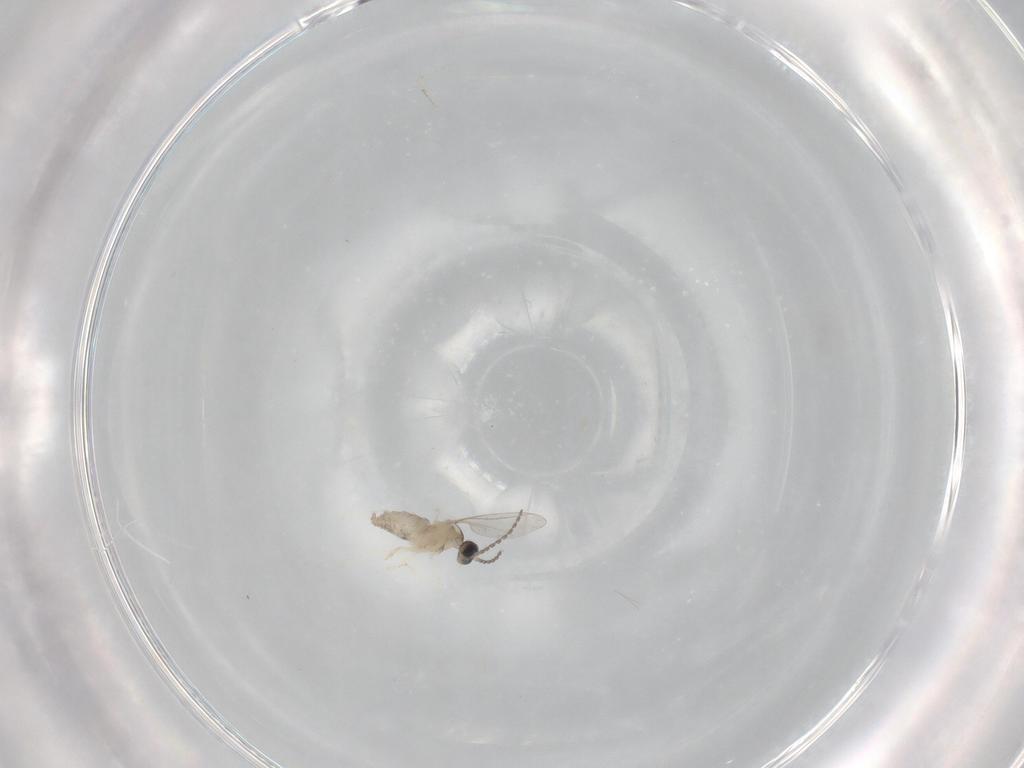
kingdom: Animalia
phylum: Arthropoda
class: Insecta
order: Diptera
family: Cecidomyiidae
